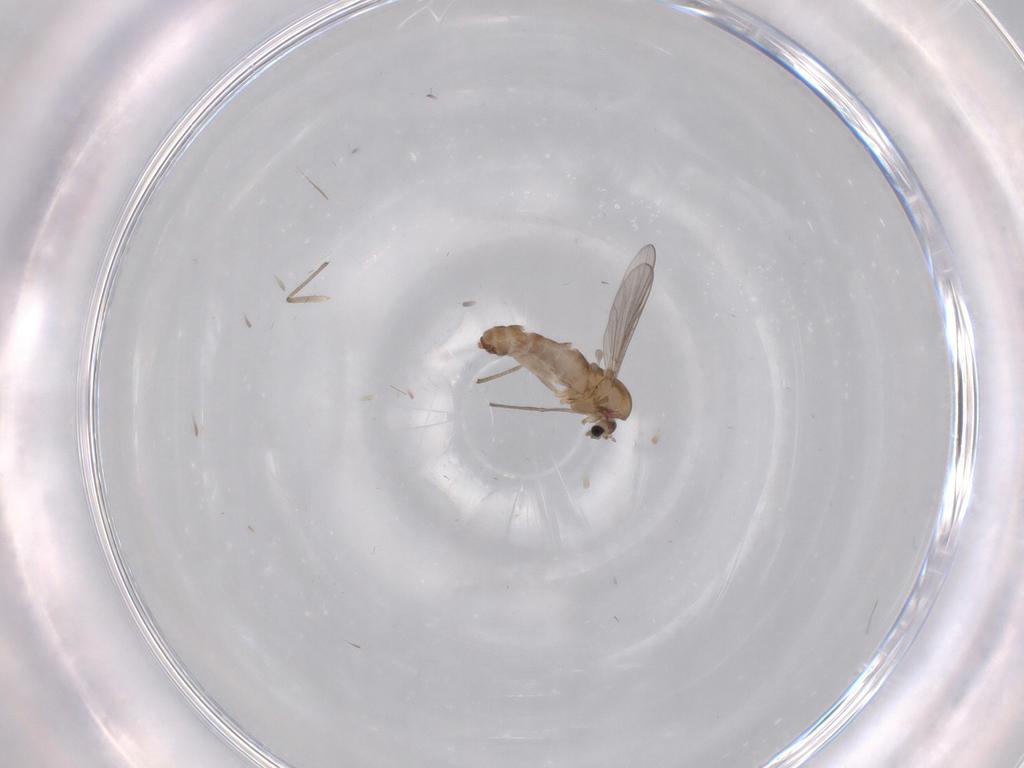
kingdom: Animalia
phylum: Arthropoda
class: Insecta
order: Diptera
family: Chironomidae
